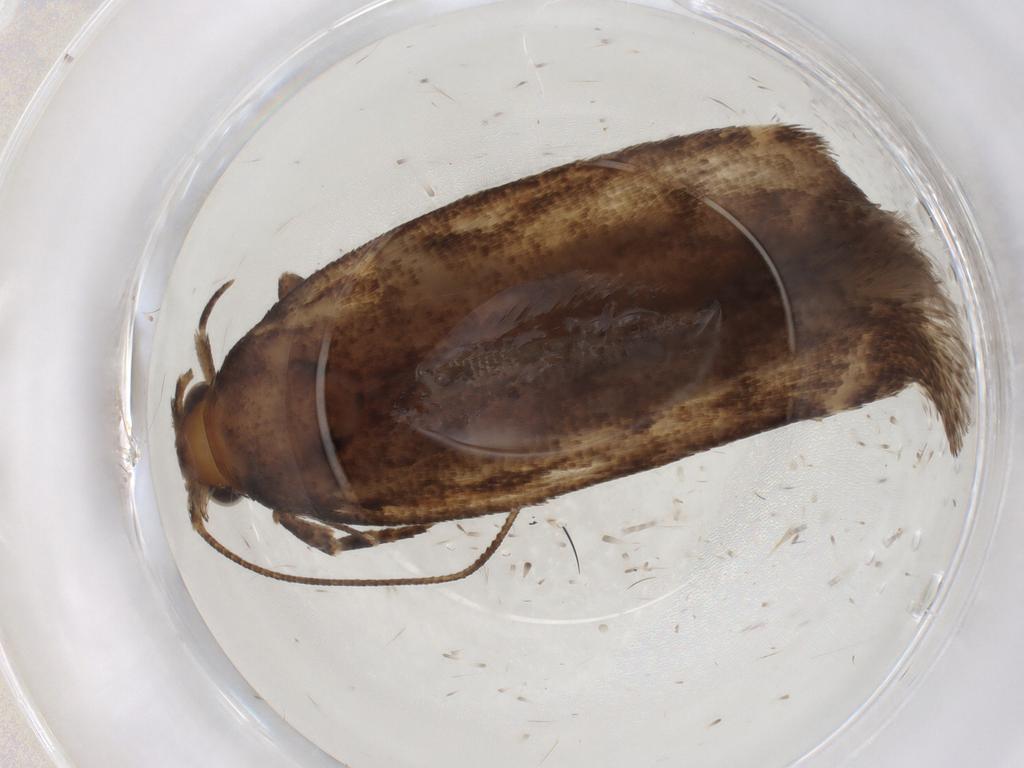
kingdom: Animalia
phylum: Arthropoda
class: Insecta
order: Lepidoptera
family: Gelechiidae
